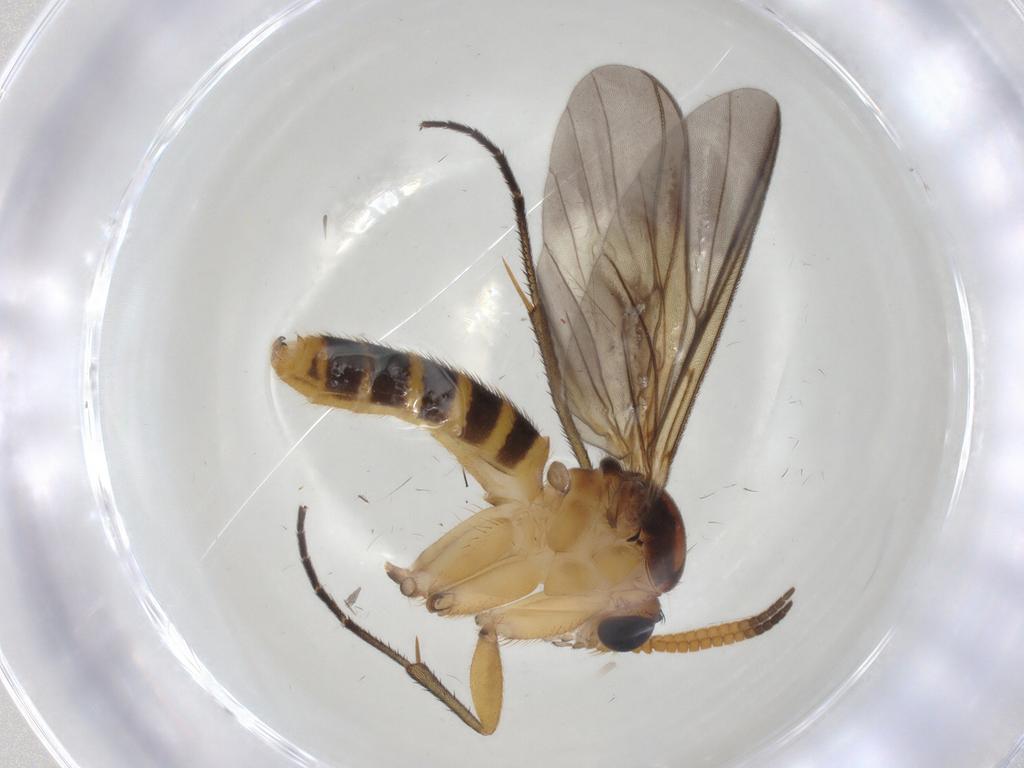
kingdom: Animalia
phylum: Arthropoda
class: Insecta
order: Diptera
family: Limoniidae
